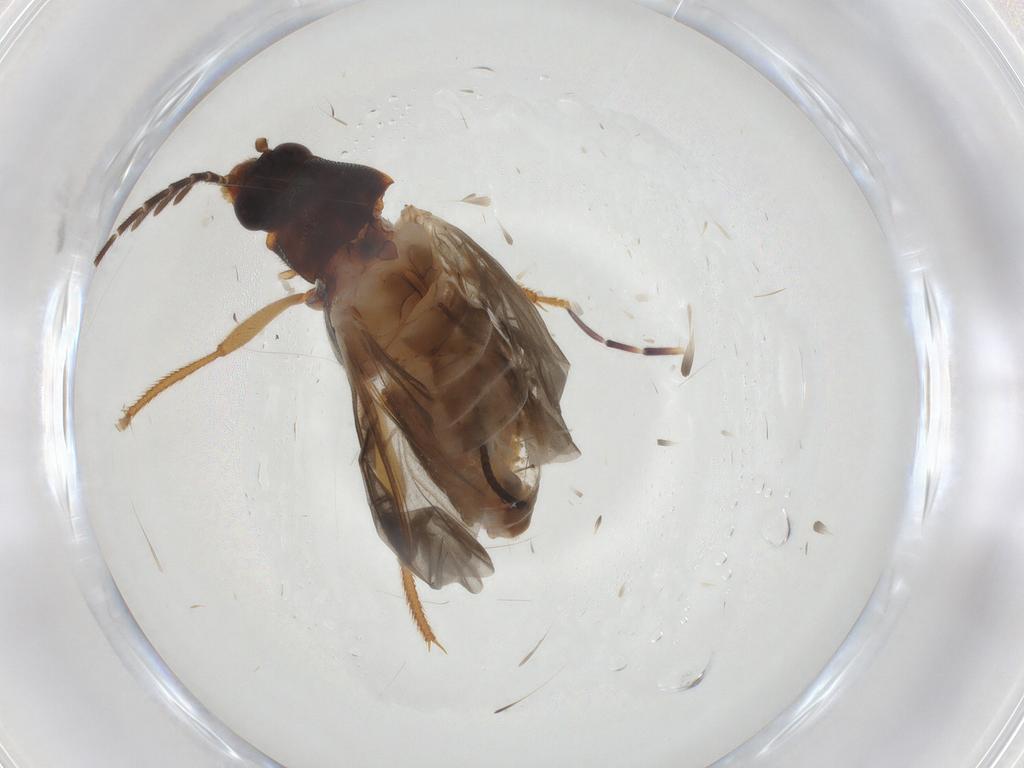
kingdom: Animalia
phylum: Arthropoda
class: Insecta
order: Coleoptera
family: Ptilodactylidae
